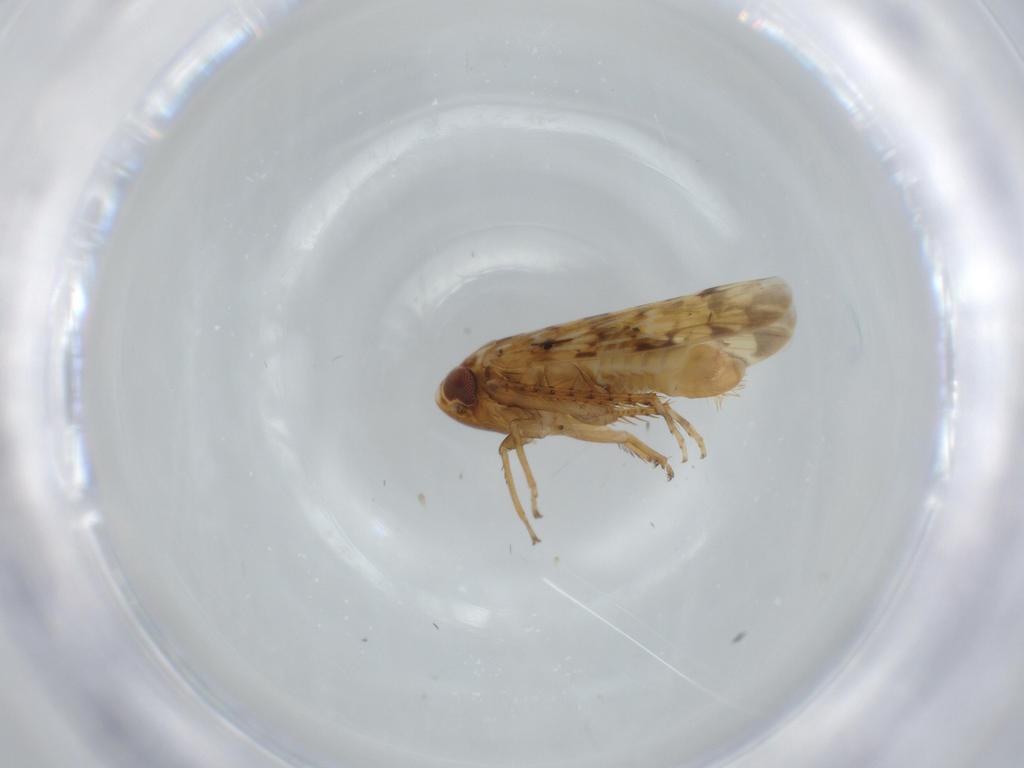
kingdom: Animalia
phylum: Arthropoda
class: Insecta
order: Hemiptera
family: Cicadellidae
